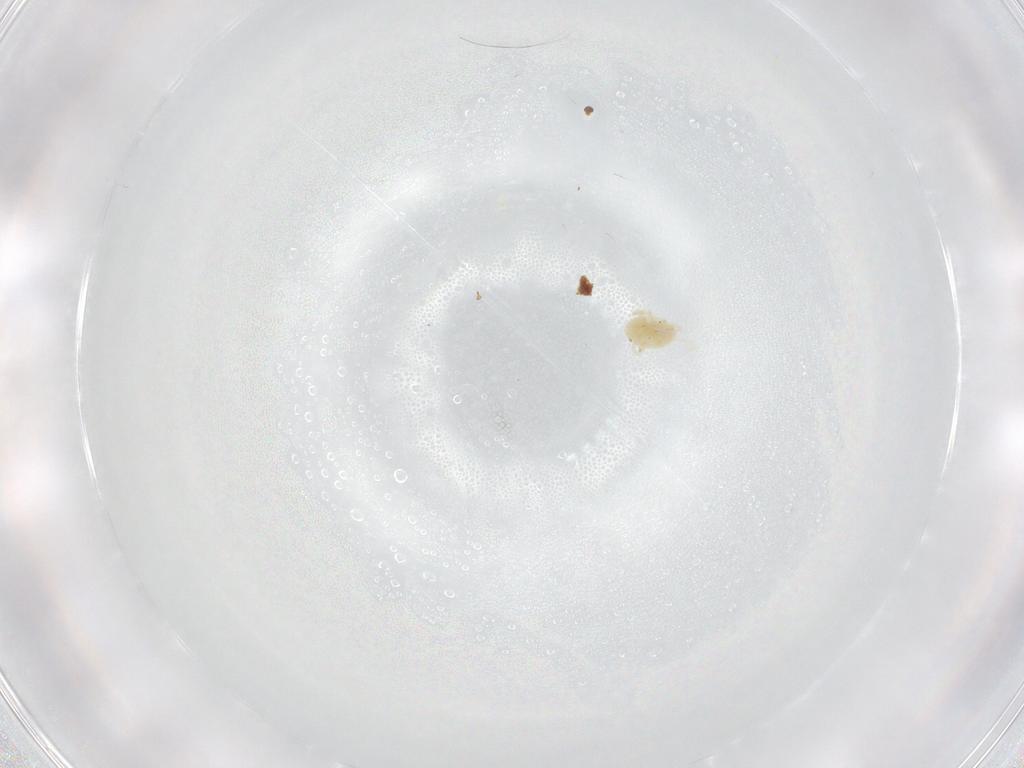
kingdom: Animalia
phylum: Arthropoda
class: Arachnida
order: Trombidiformes
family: Eupodidae
